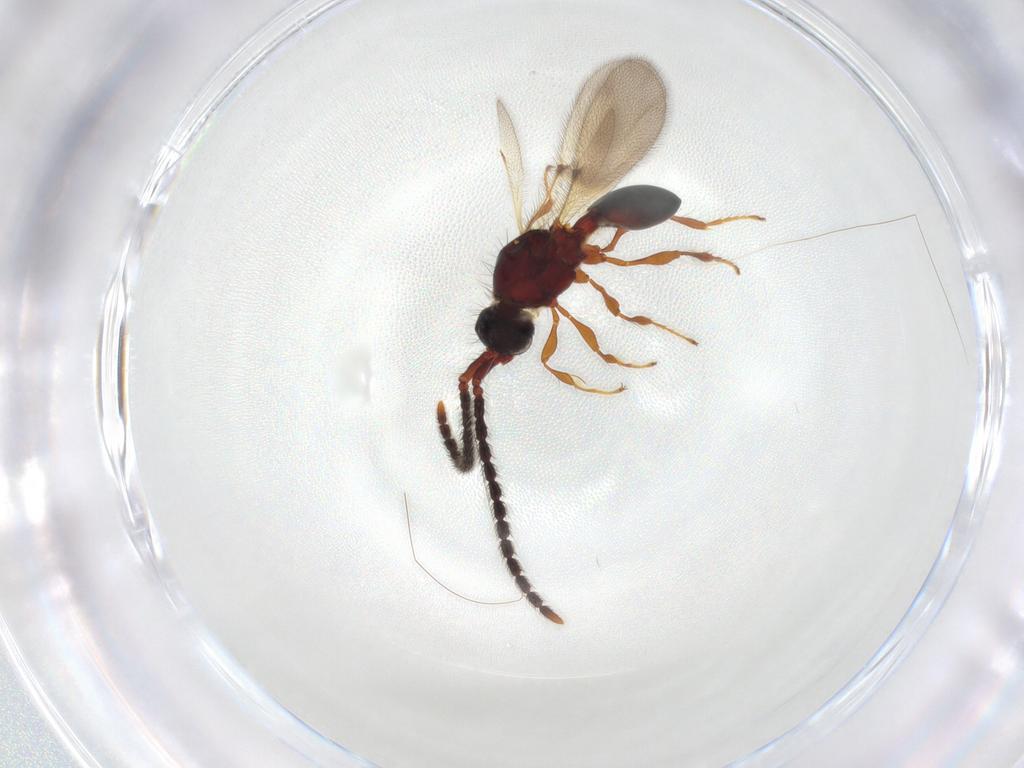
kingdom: Animalia
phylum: Arthropoda
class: Insecta
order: Hymenoptera
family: Diapriidae
